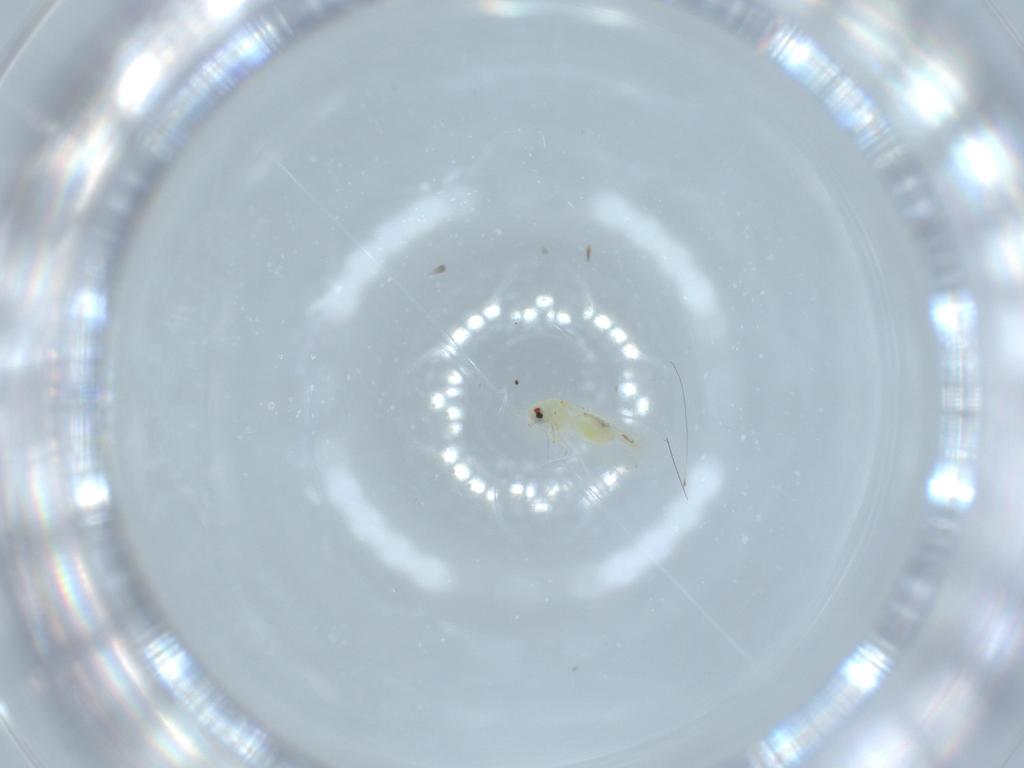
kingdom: Animalia
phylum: Arthropoda
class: Insecta
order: Hemiptera
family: Aleyrodidae
